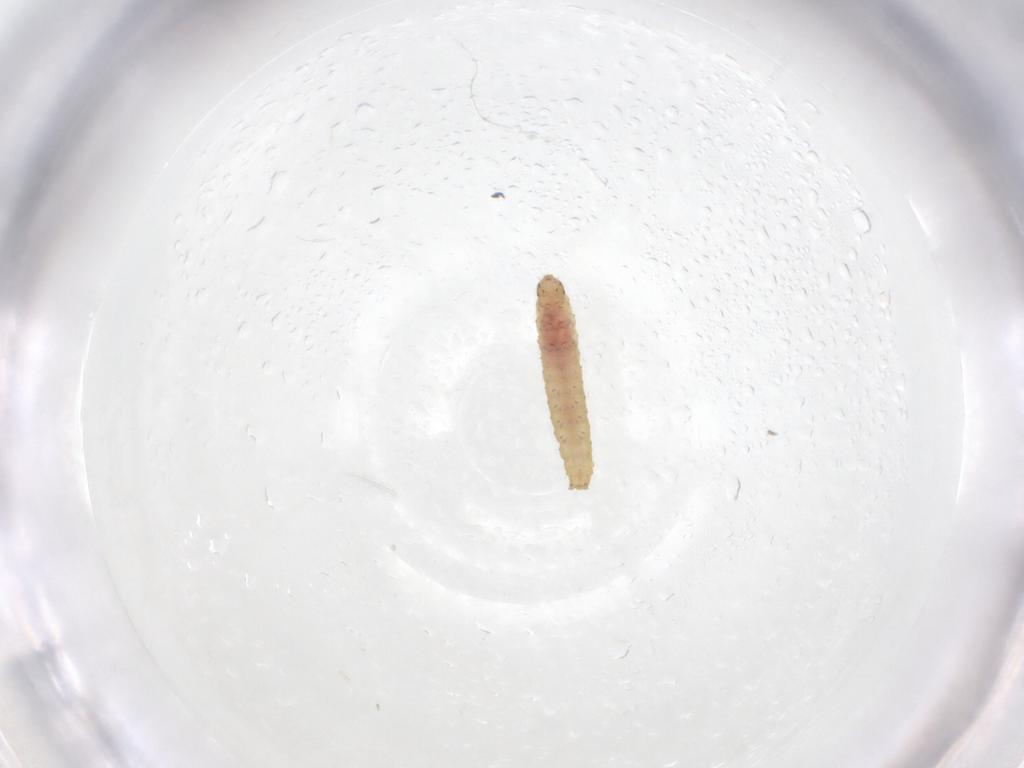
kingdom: Animalia
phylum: Arthropoda
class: Insecta
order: Lepidoptera
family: Gelechiidae
